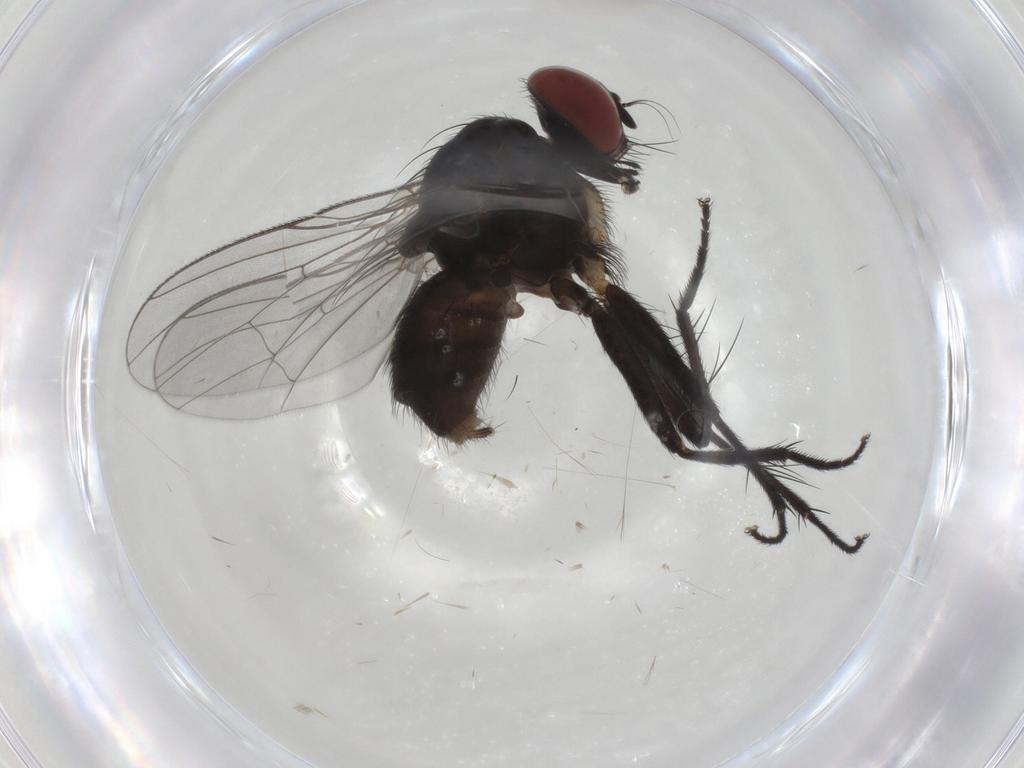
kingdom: Animalia
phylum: Arthropoda
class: Insecta
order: Diptera
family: Muscidae
